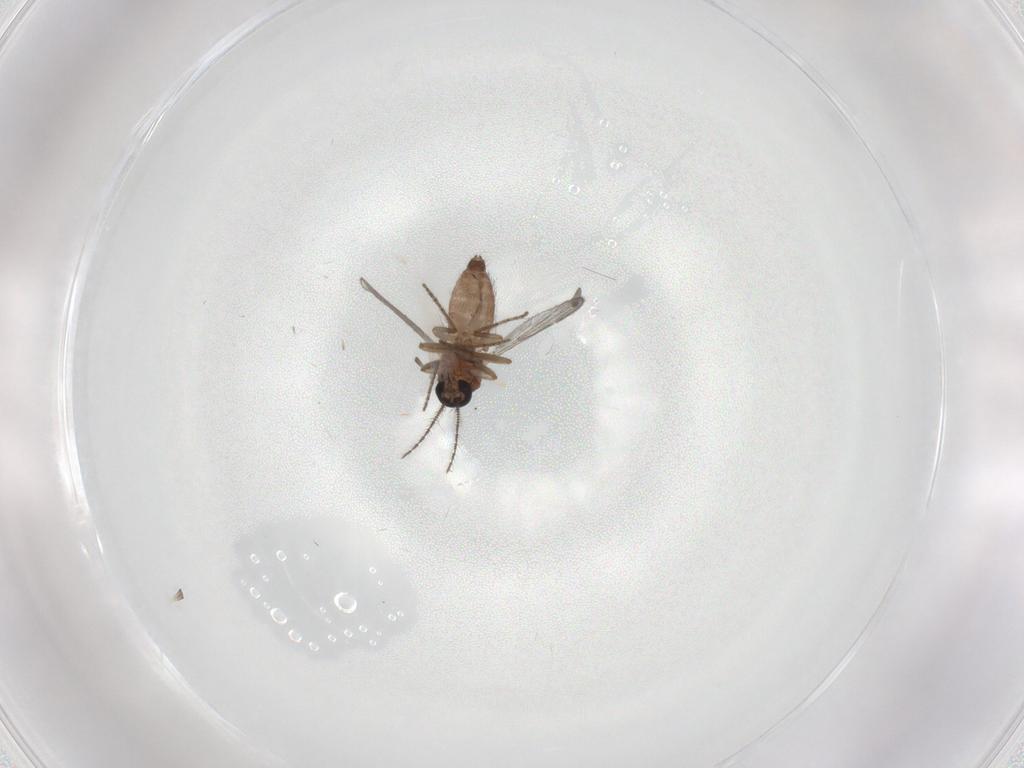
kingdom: Animalia
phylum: Arthropoda
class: Insecta
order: Diptera
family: Ceratopogonidae
